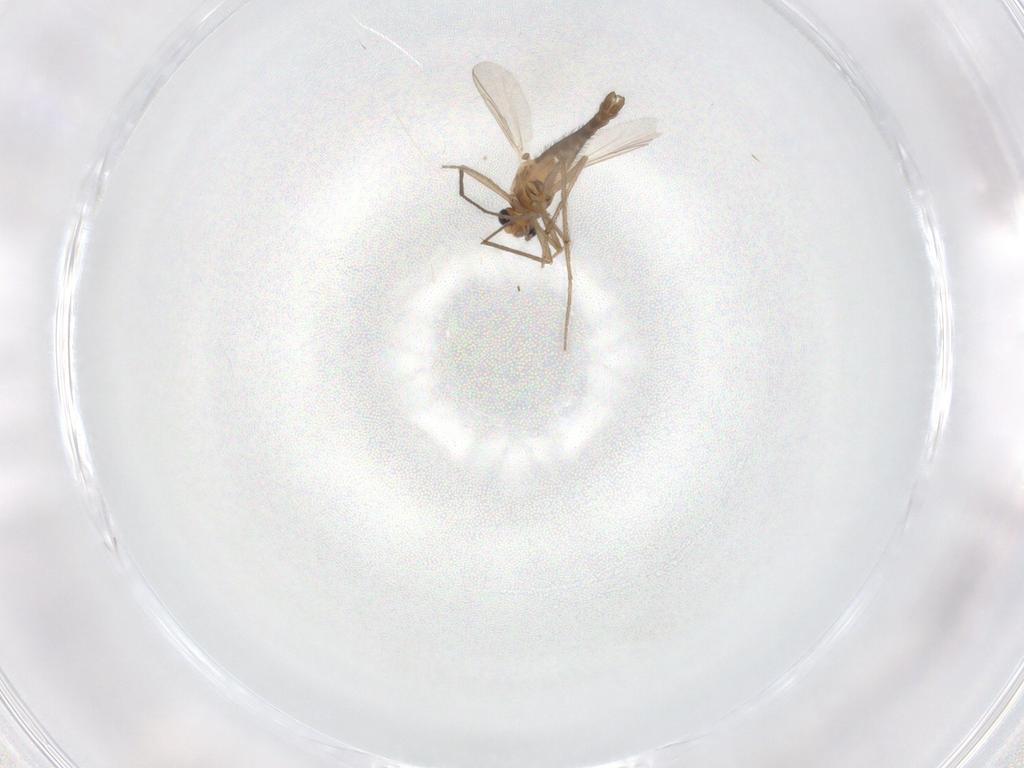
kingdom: Animalia
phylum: Arthropoda
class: Insecta
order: Diptera
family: Chironomidae
